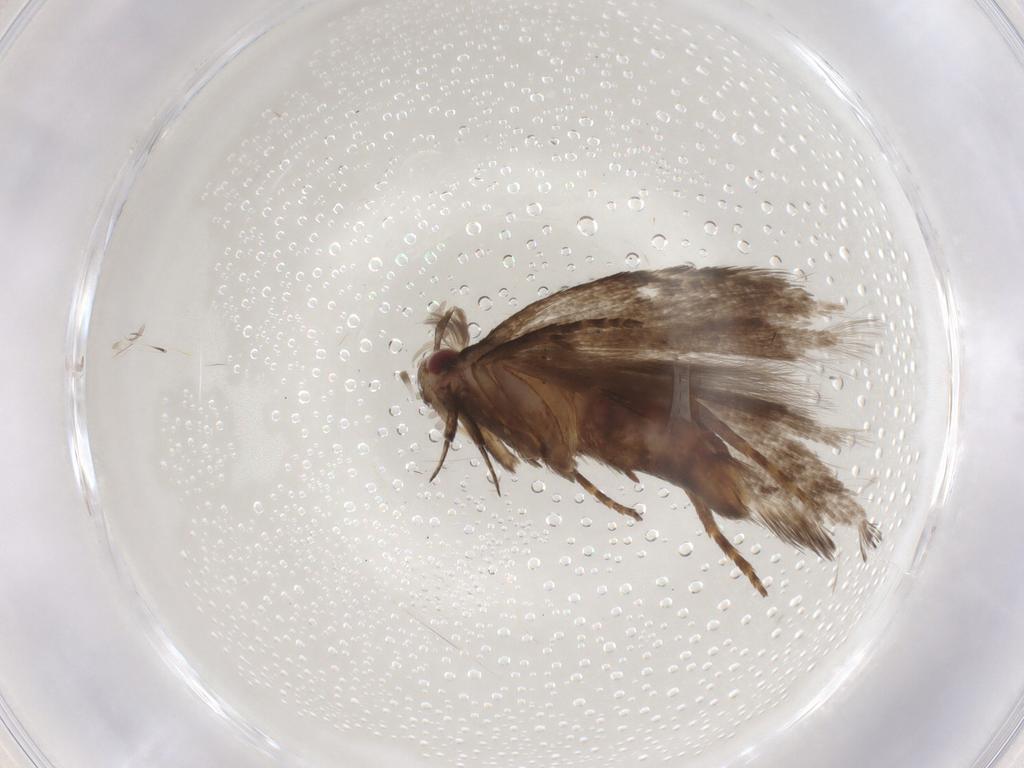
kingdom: Animalia
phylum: Arthropoda
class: Insecta
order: Lepidoptera
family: Gelechiidae
